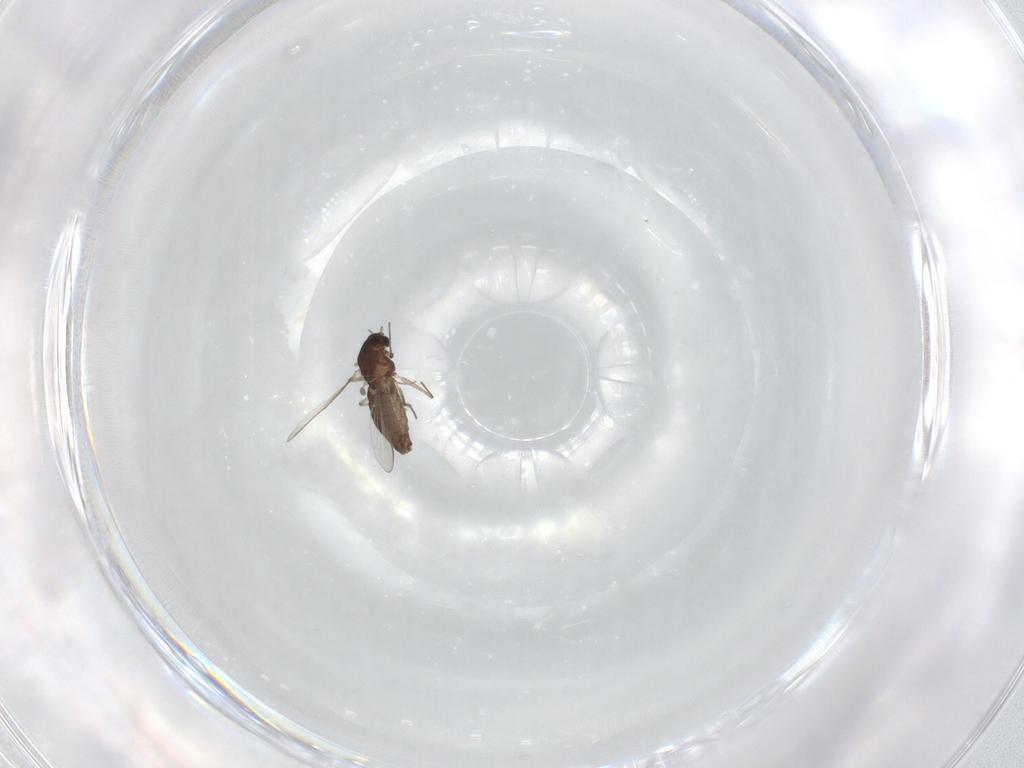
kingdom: Animalia
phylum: Arthropoda
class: Insecta
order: Diptera
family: Chironomidae
